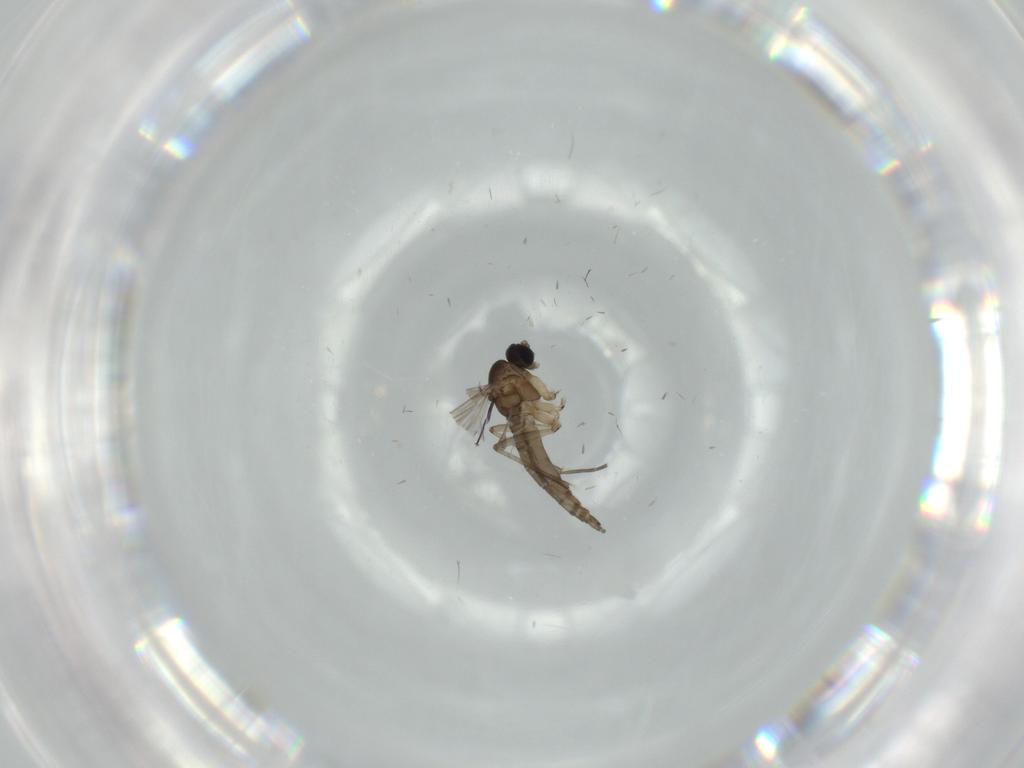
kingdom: Animalia
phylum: Arthropoda
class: Insecta
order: Diptera
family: Sciaridae
